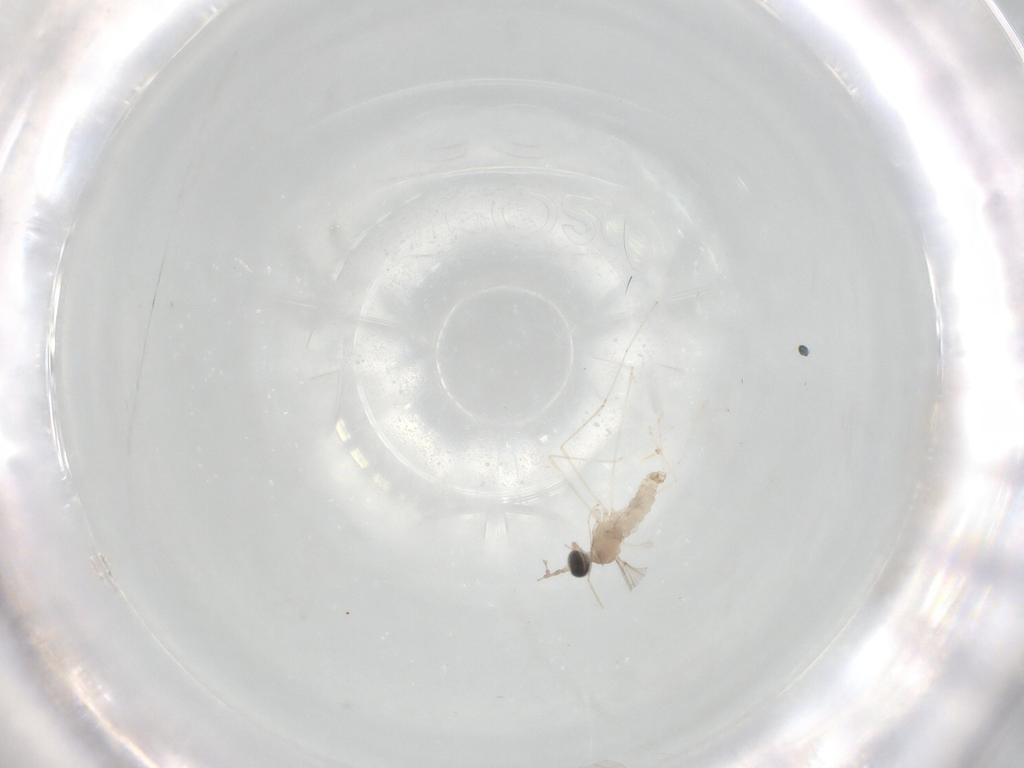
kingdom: Animalia
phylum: Arthropoda
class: Insecta
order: Diptera
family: Cecidomyiidae
